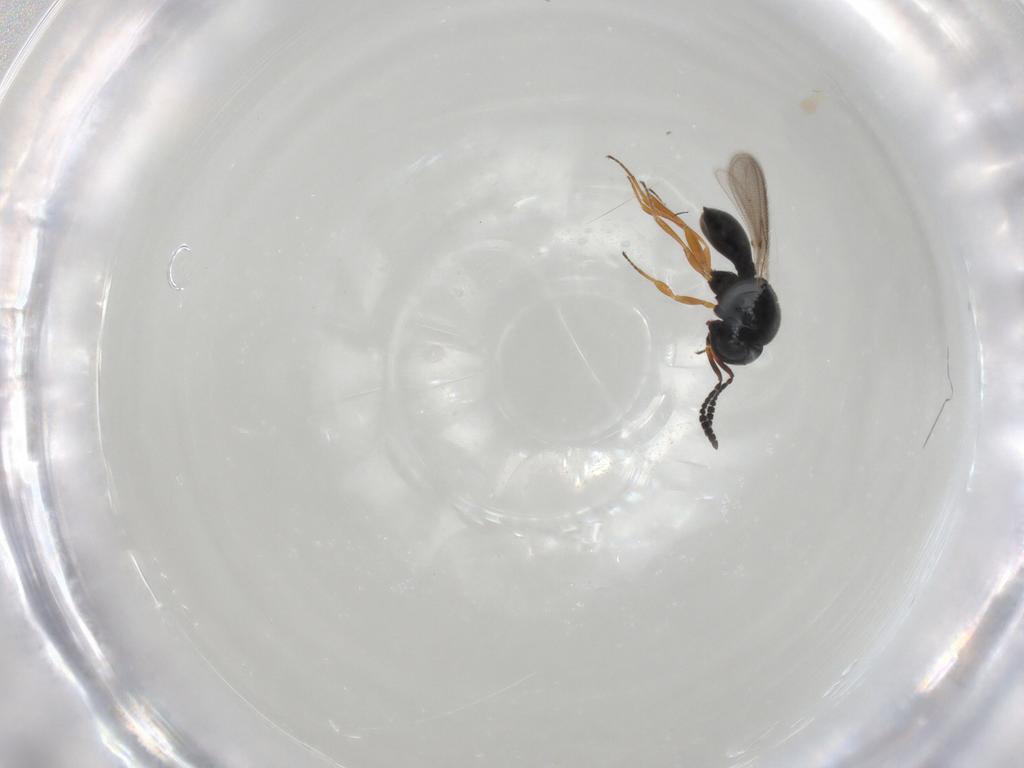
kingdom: Animalia
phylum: Arthropoda
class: Insecta
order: Hymenoptera
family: Scelionidae
